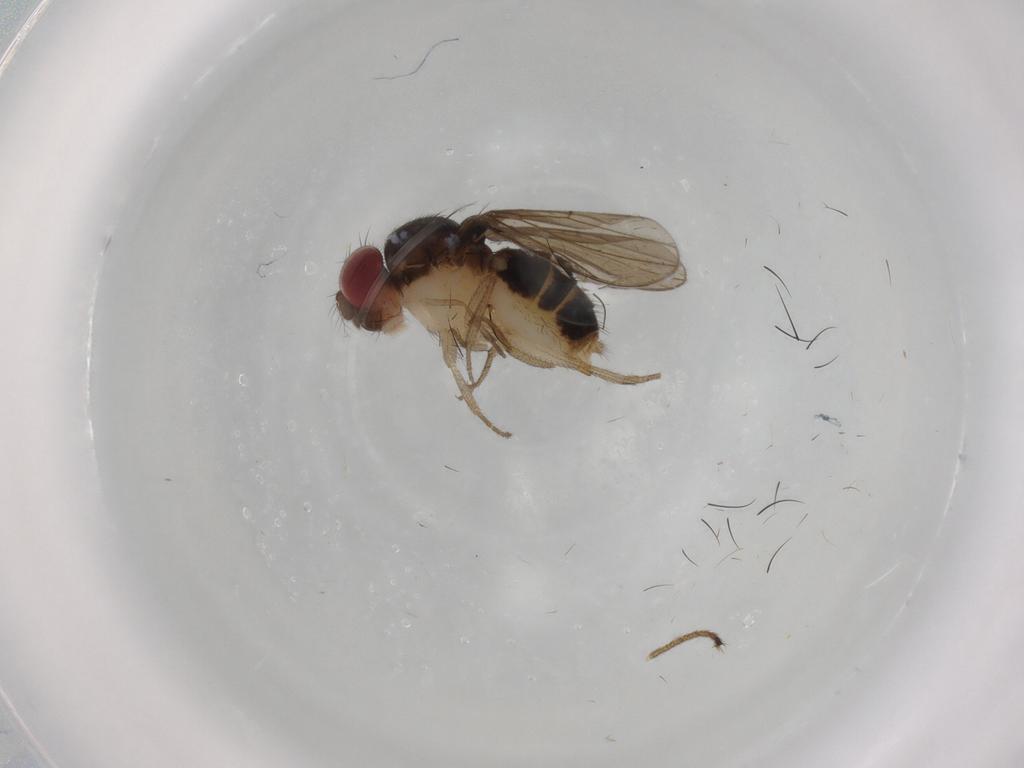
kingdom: Animalia
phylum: Arthropoda
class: Insecta
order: Diptera
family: Drosophilidae
